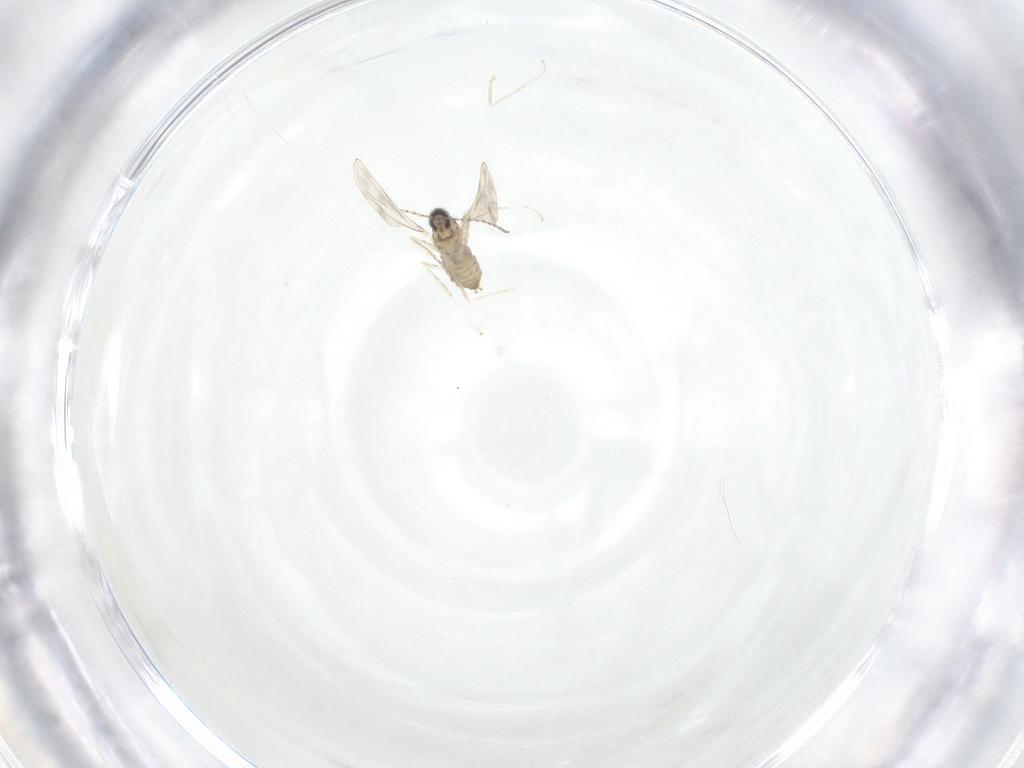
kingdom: Animalia
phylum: Arthropoda
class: Insecta
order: Diptera
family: Cecidomyiidae
